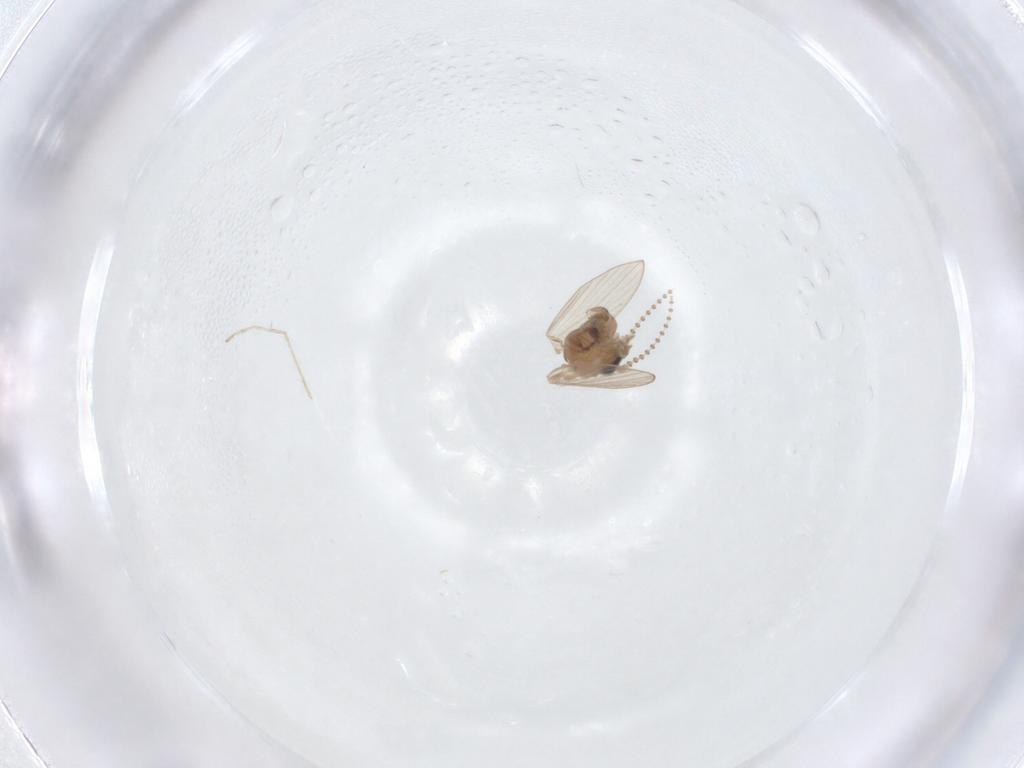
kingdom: Animalia
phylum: Arthropoda
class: Insecta
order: Diptera
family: Psychodidae
